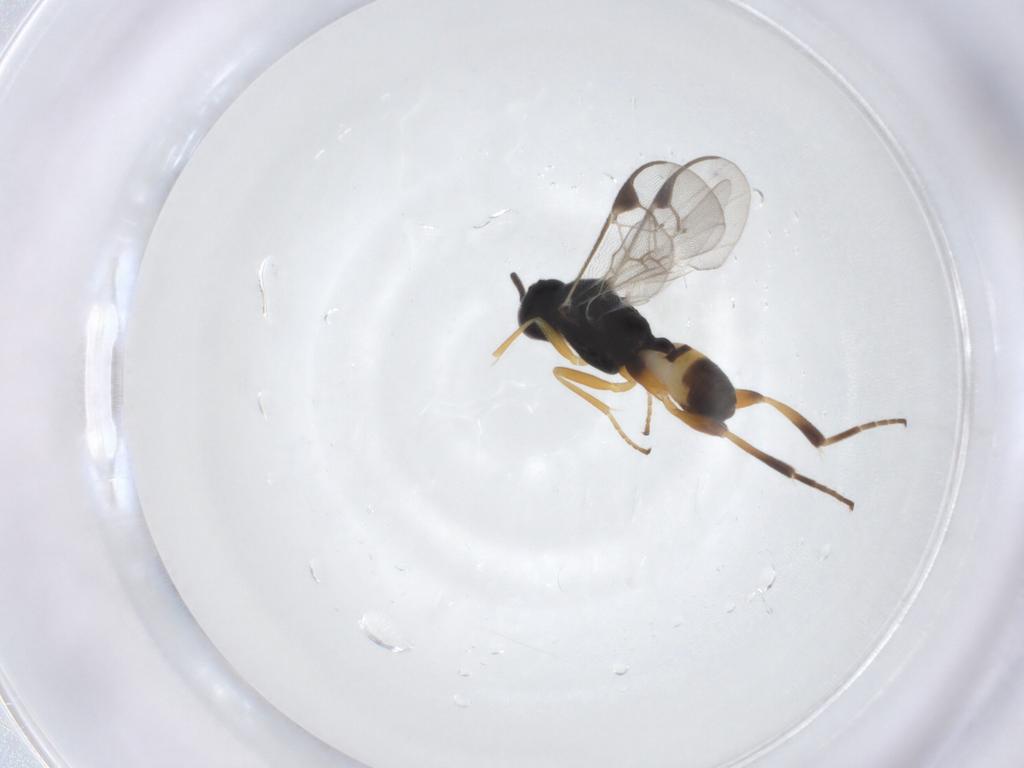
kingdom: Animalia
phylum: Arthropoda
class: Insecta
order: Hymenoptera
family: Braconidae
